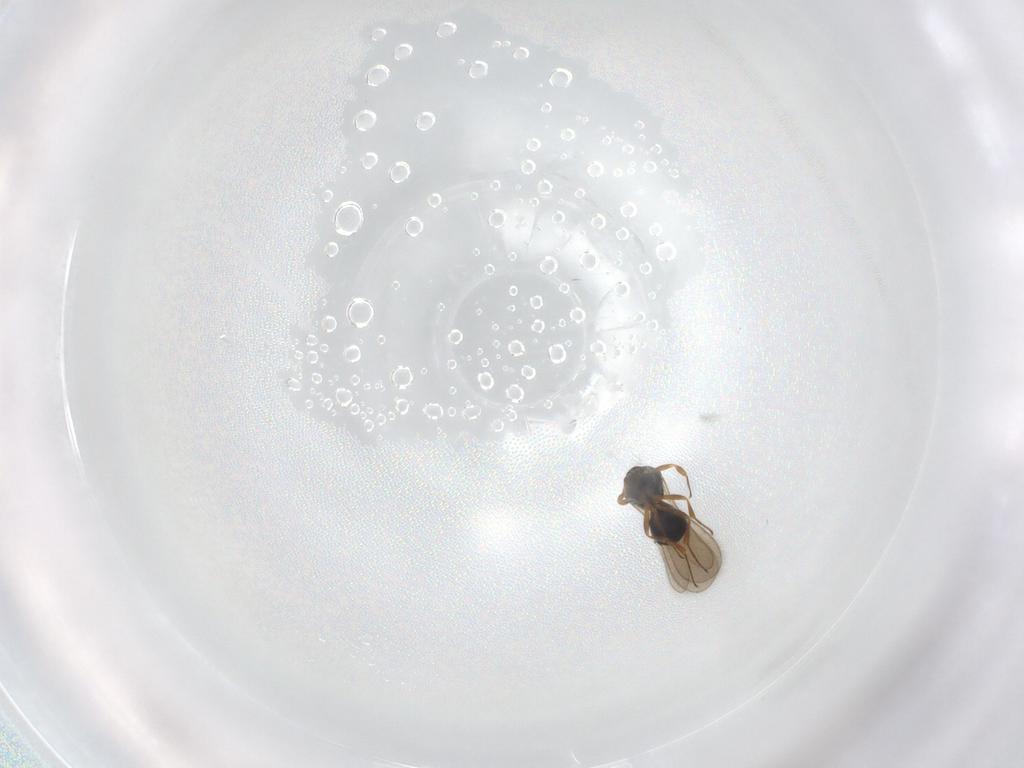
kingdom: Animalia
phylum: Arthropoda
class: Insecta
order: Hymenoptera
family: Scelionidae
